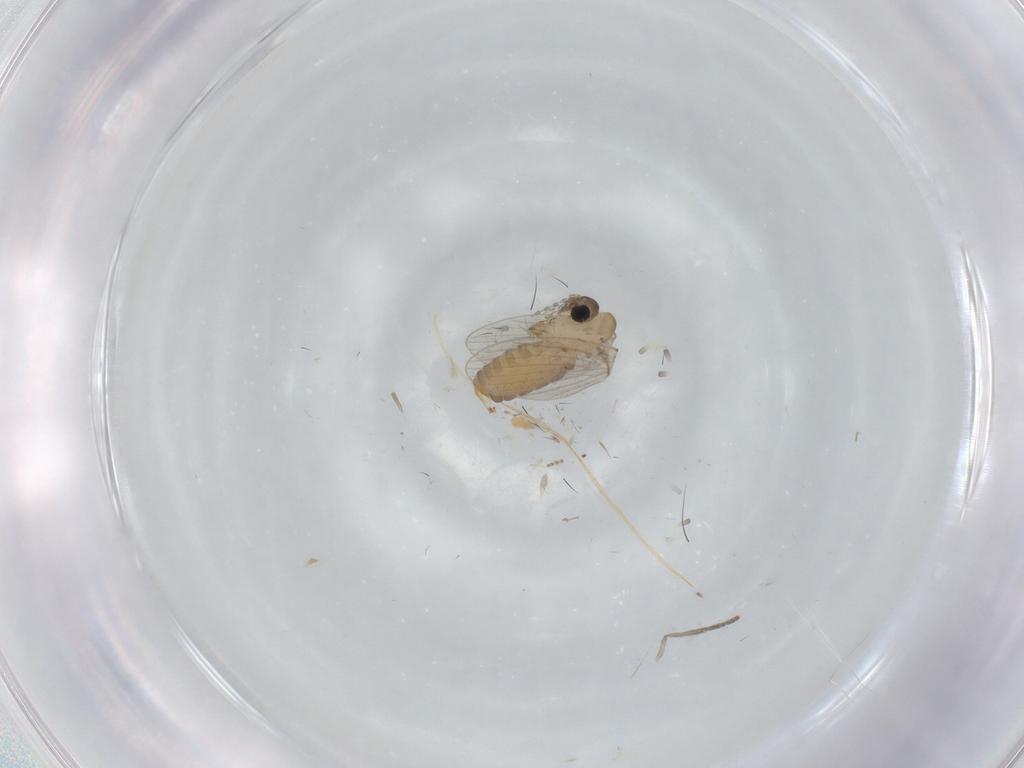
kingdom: Animalia
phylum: Arthropoda
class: Insecta
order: Diptera
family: Psychodidae
